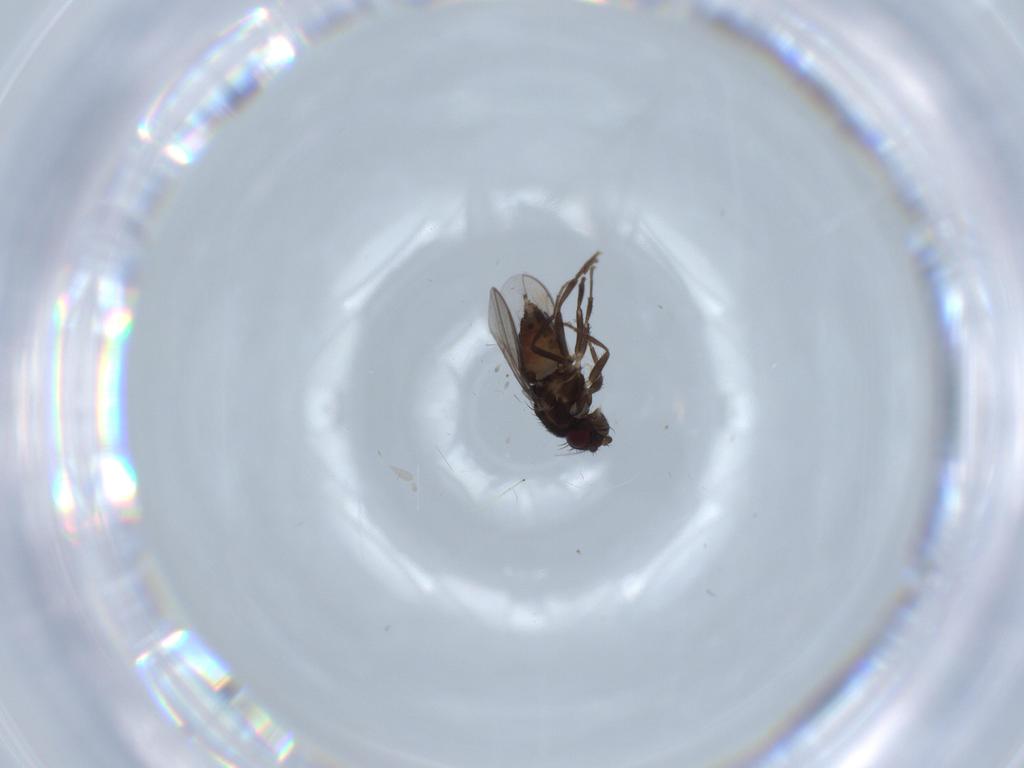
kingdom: Animalia
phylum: Arthropoda
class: Insecta
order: Diptera
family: Sphaeroceridae
